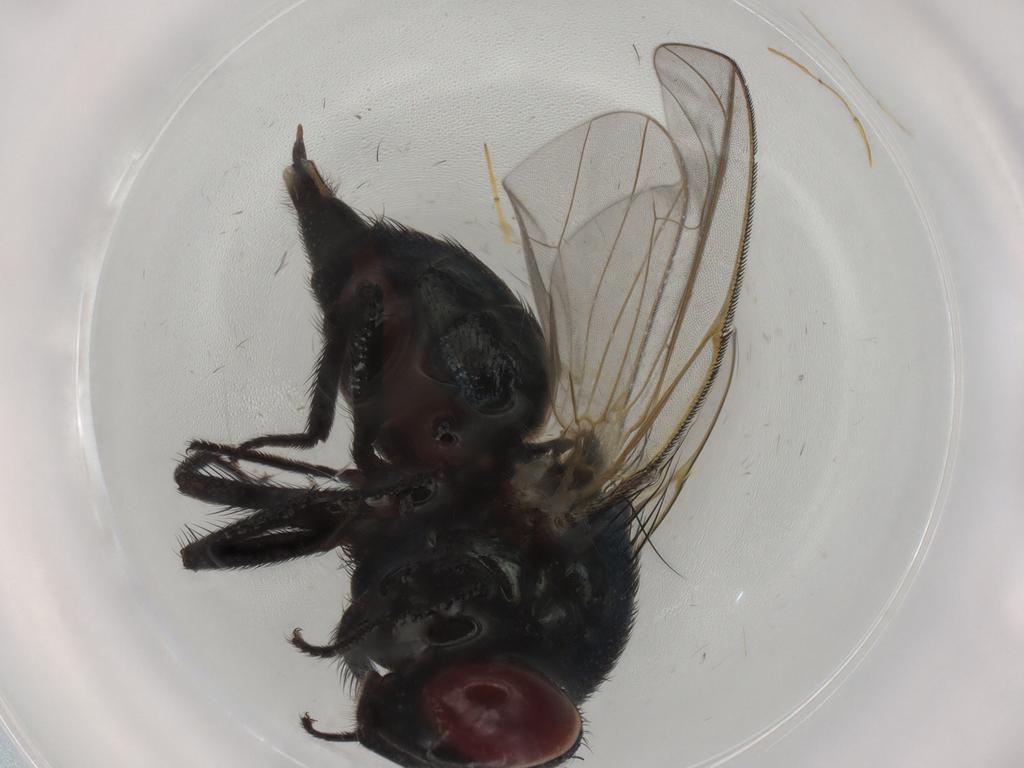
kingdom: Animalia
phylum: Arthropoda
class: Insecta
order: Diptera
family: Lonchaeidae
